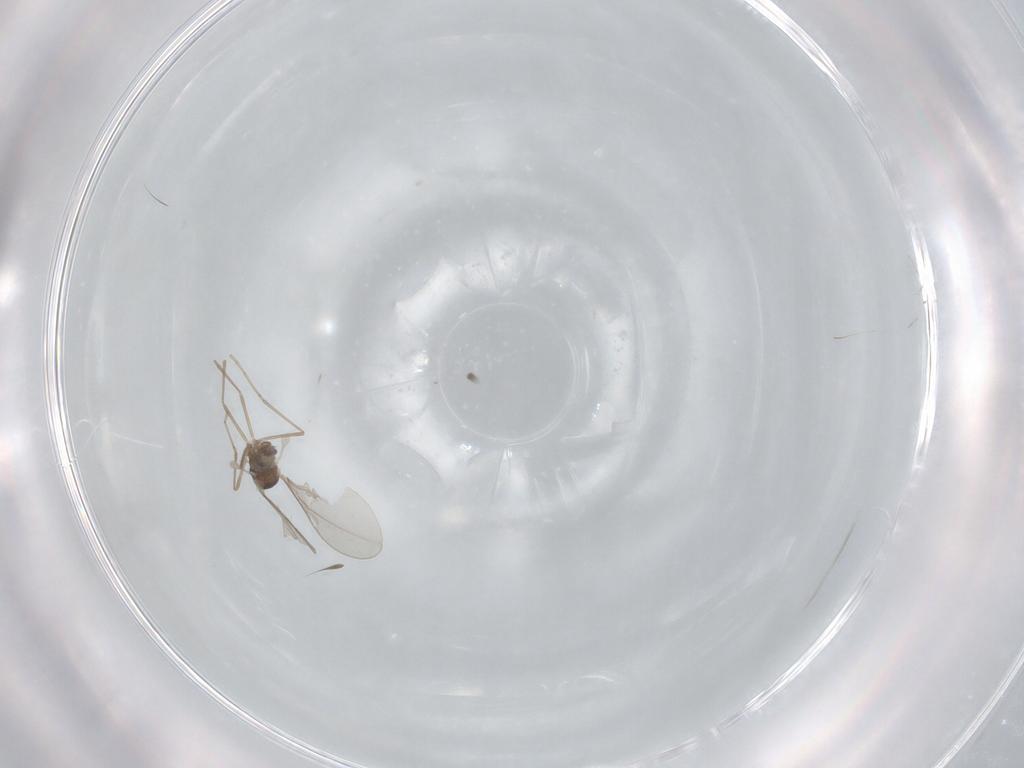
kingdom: Animalia
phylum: Arthropoda
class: Insecta
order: Diptera
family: Cecidomyiidae
